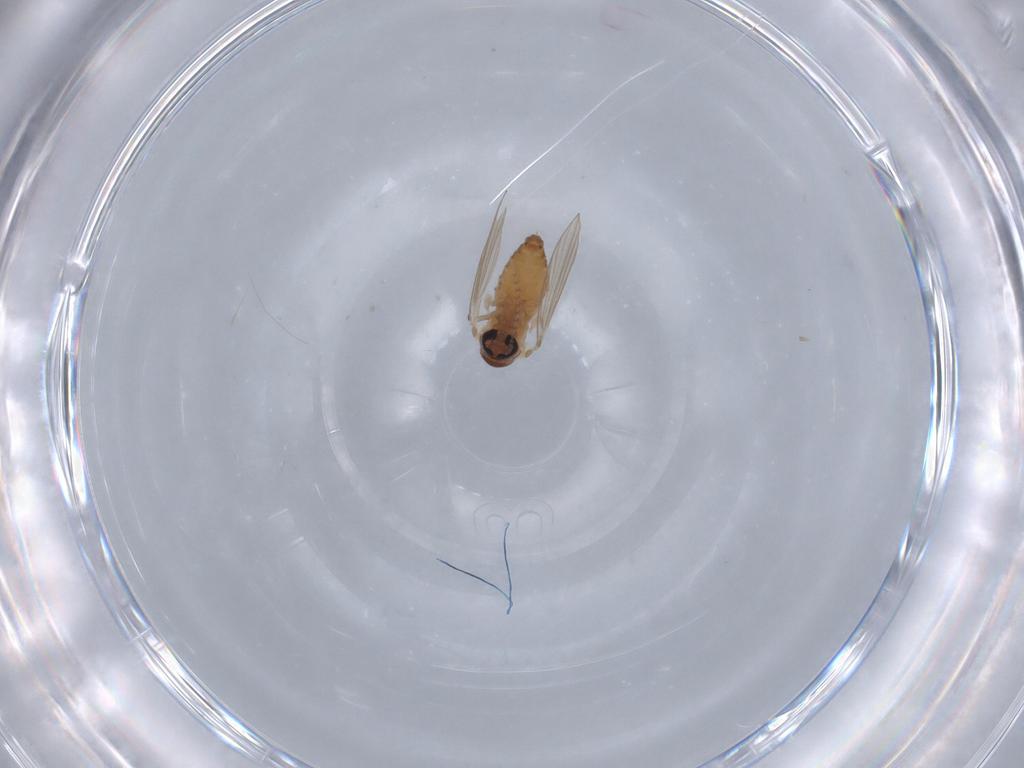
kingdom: Animalia
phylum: Arthropoda
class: Insecta
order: Diptera
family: Psychodidae
